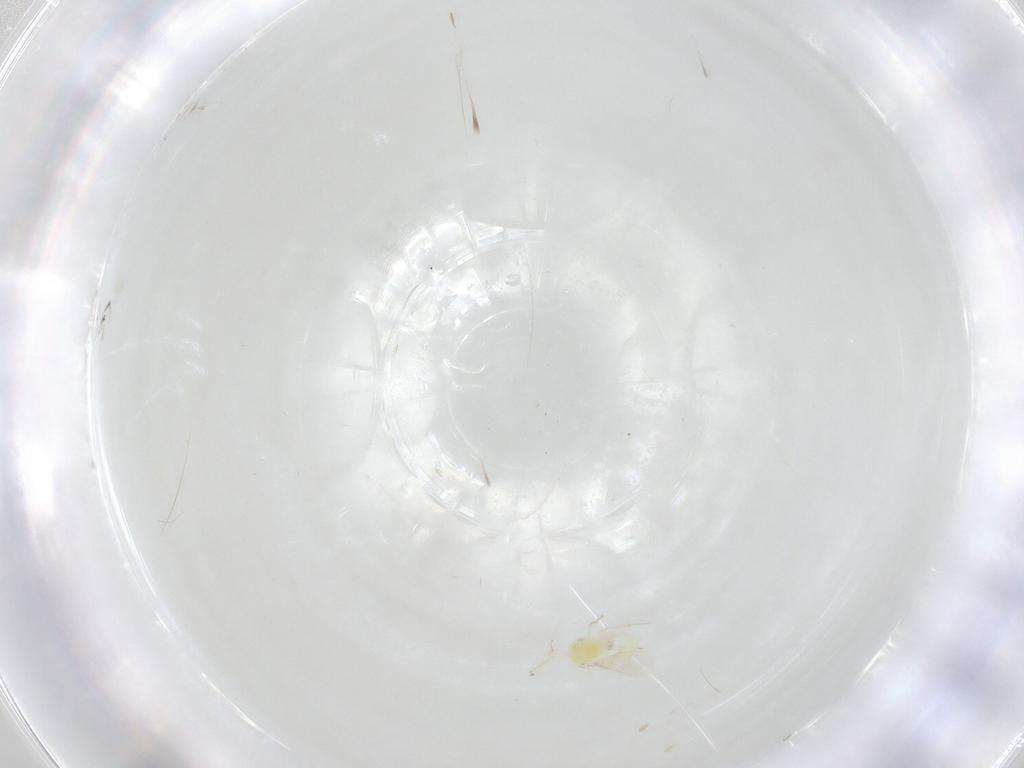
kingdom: Animalia
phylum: Arthropoda
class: Insecta
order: Hymenoptera
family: Aphelinidae
